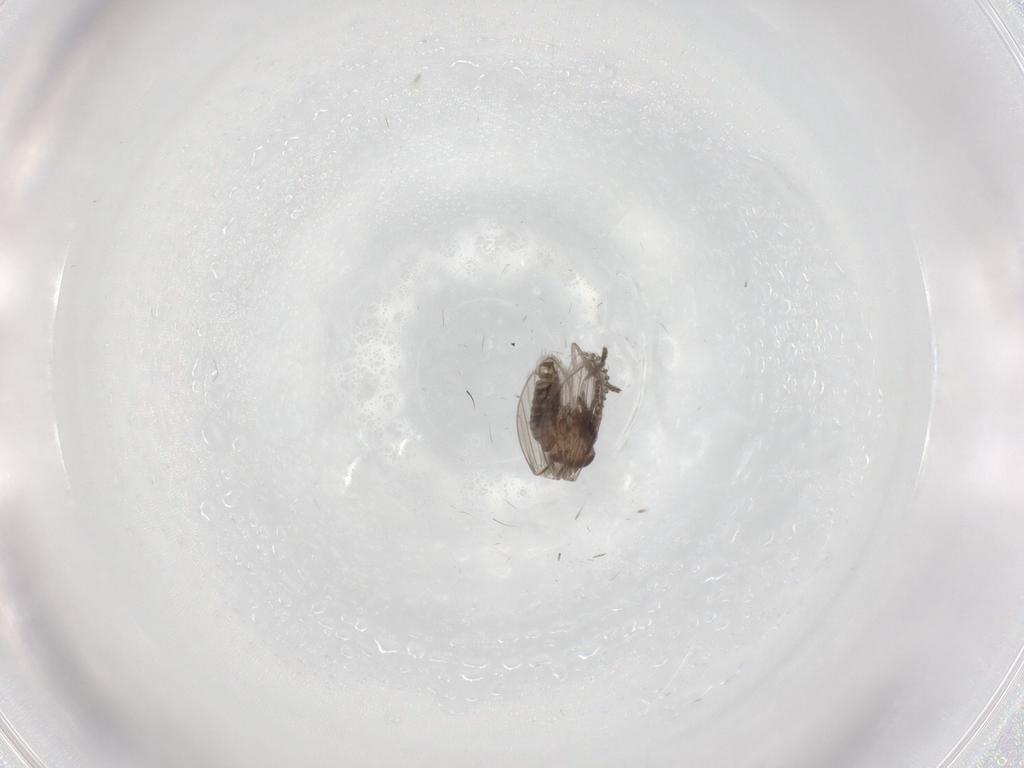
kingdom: Animalia
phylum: Arthropoda
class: Insecta
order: Diptera
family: Psychodidae
